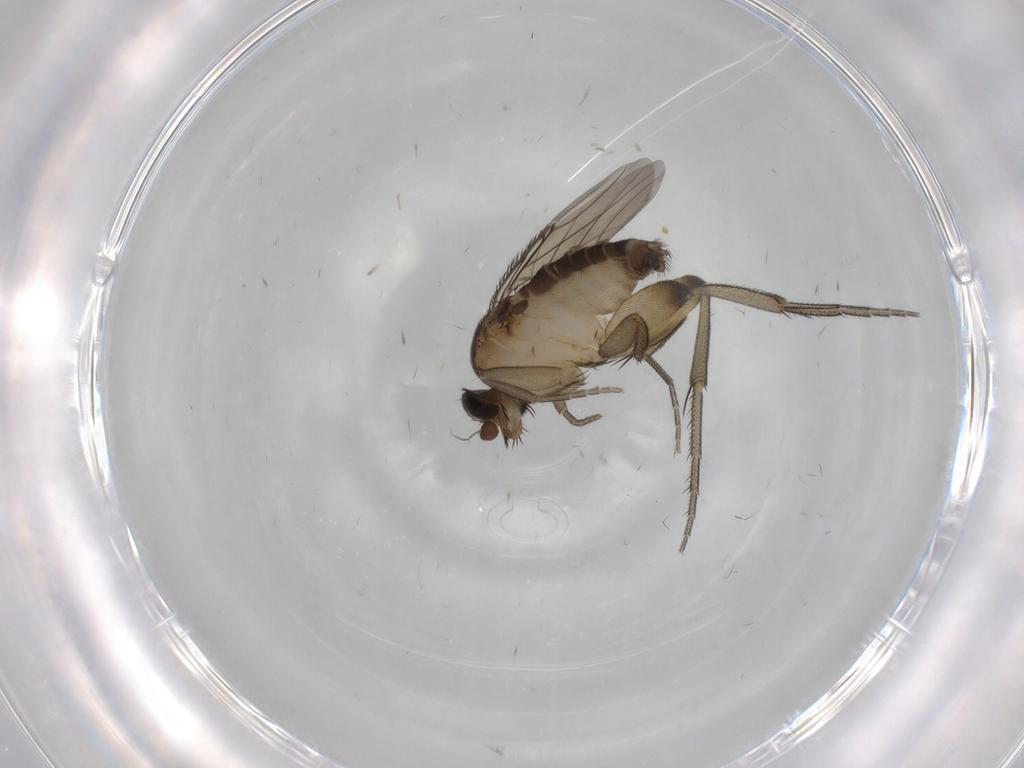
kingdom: Animalia
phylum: Arthropoda
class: Insecta
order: Diptera
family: Phoridae
